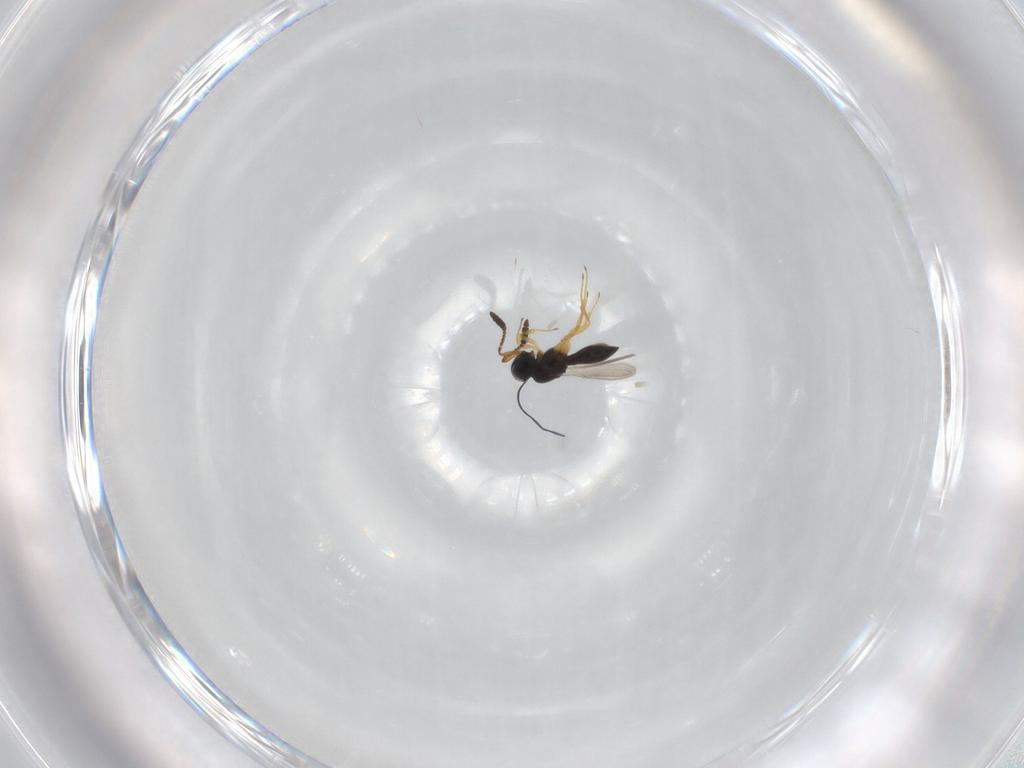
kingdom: Animalia
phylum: Arthropoda
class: Insecta
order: Hymenoptera
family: Scelionidae
